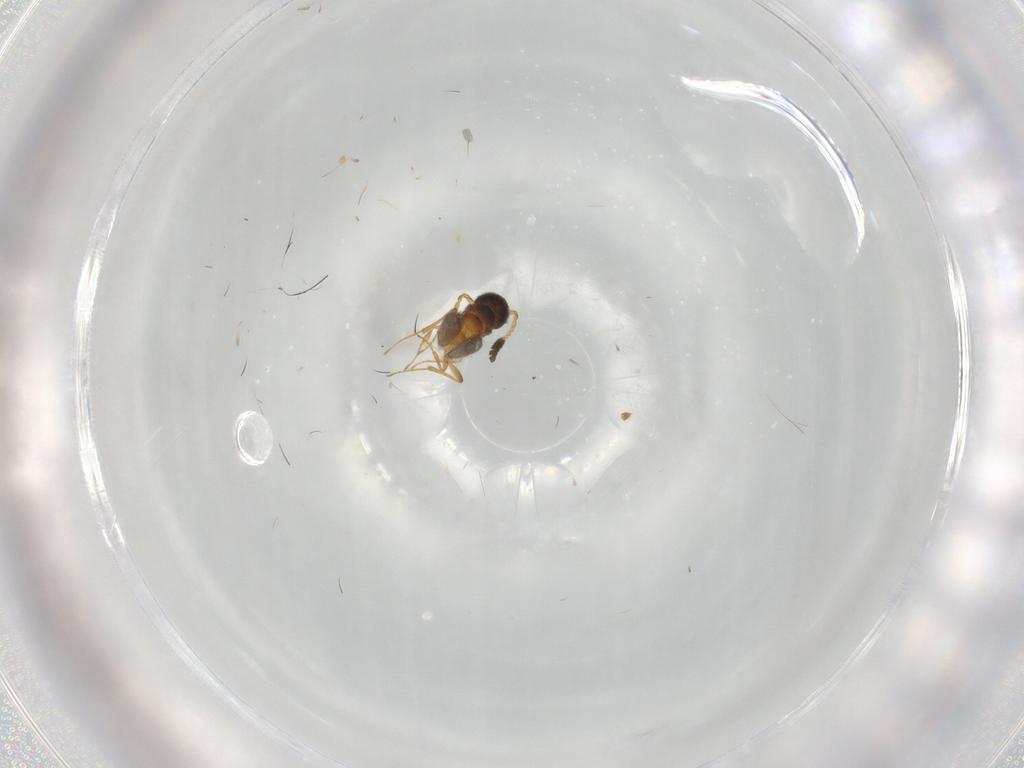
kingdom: Animalia
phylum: Arthropoda
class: Insecta
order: Hymenoptera
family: Scelionidae
